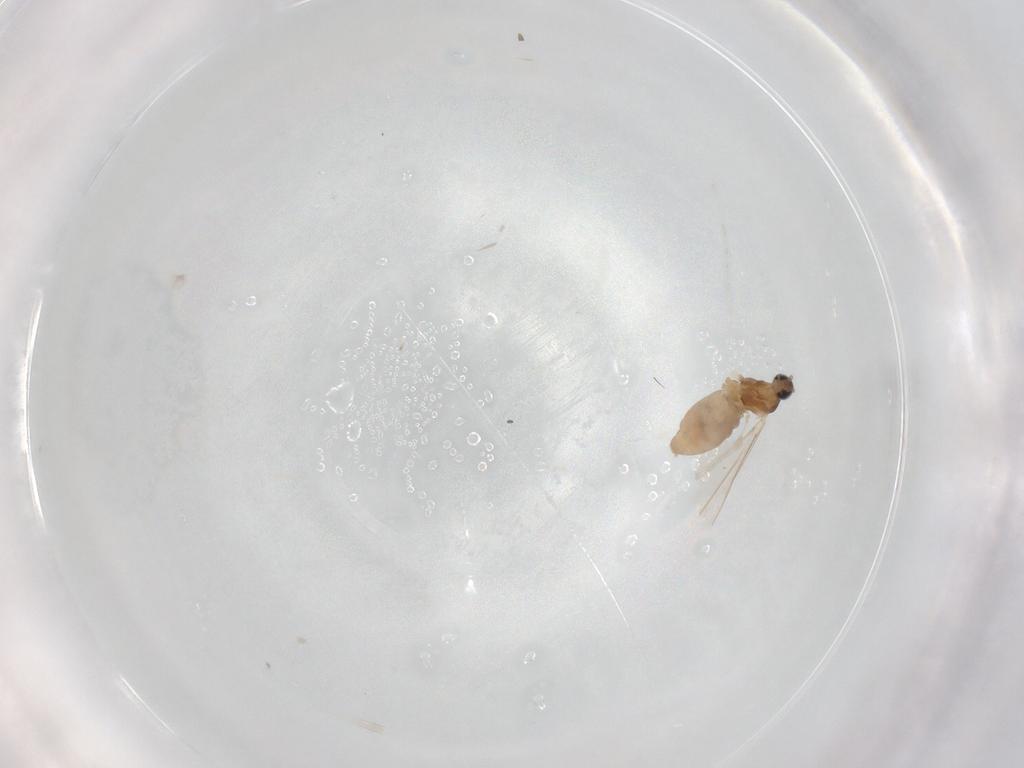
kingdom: Animalia
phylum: Arthropoda
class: Insecta
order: Diptera
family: Cecidomyiidae
